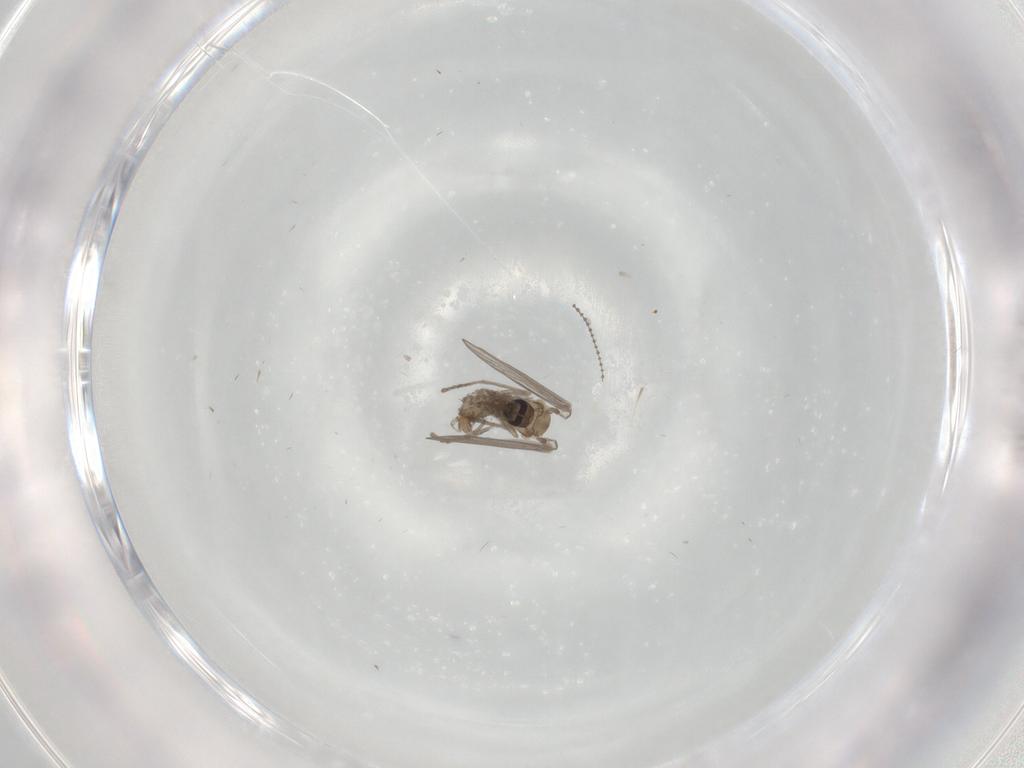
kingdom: Animalia
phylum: Arthropoda
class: Insecta
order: Diptera
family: Psychodidae
